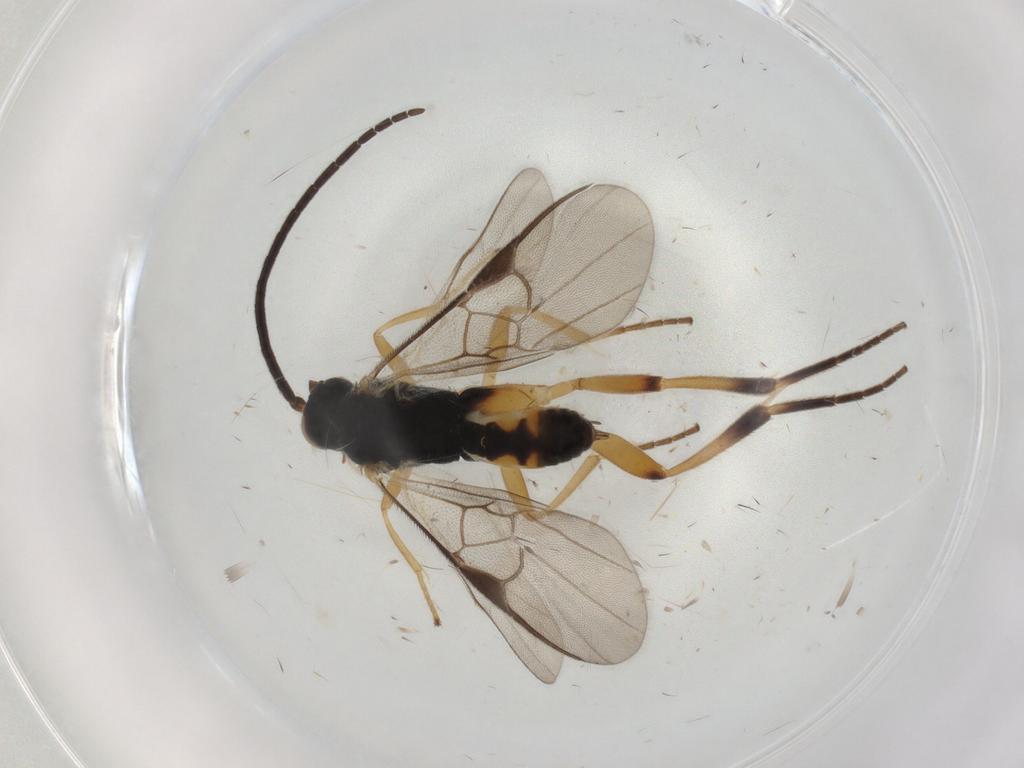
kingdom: Animalia
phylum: Arthropoda
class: Insecta
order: Hymenoptera
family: Braconidae
